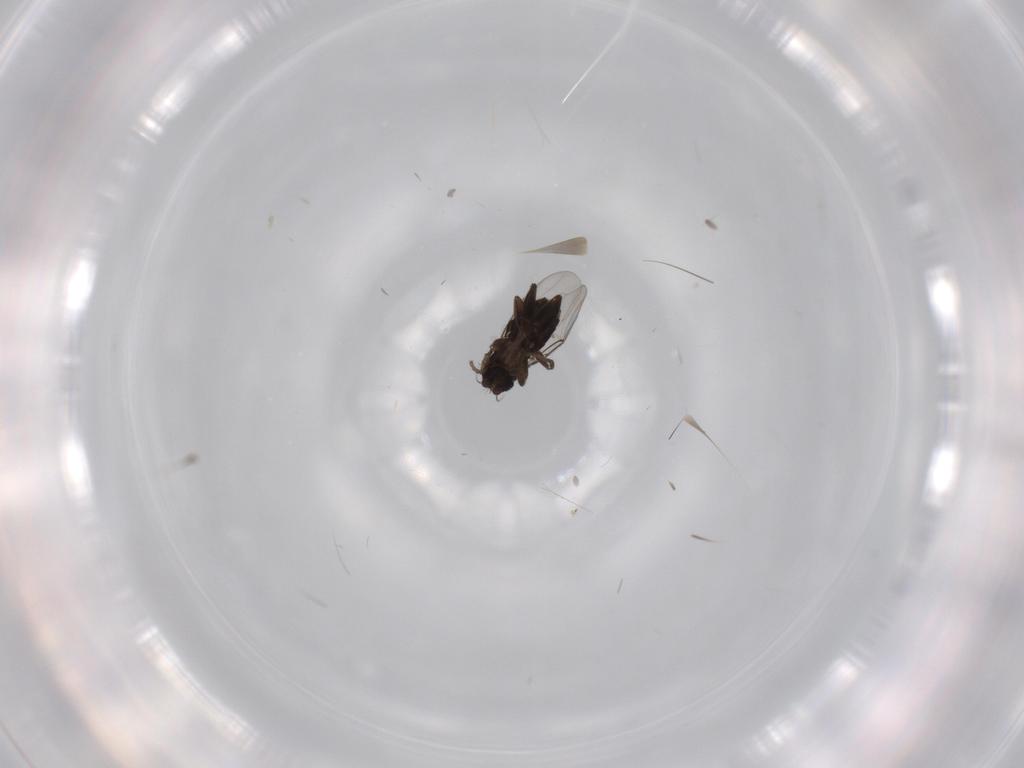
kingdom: Animalia
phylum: Arthropoda
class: Insecta
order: Diptera
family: Phoridae
